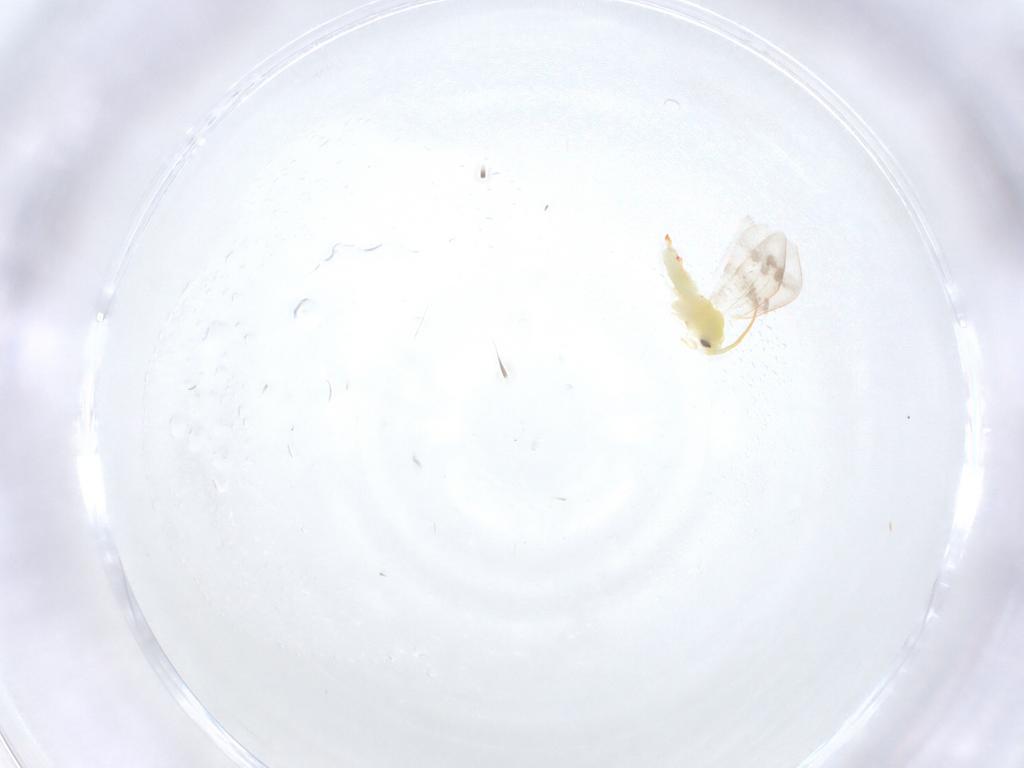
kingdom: Animalia
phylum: Arthropoda
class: Insecta
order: Hemiptera
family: Aleyrodidae
